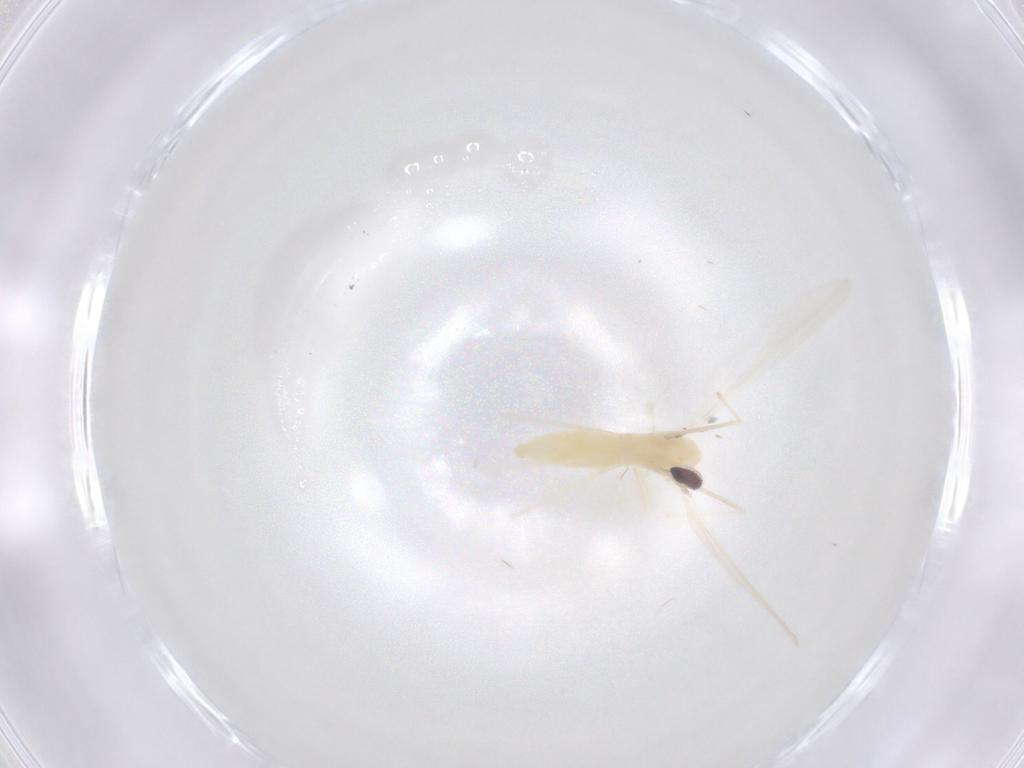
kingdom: Animalia
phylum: Arthropoda
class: Insecta
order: Diptera
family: Cecidomyiidae
